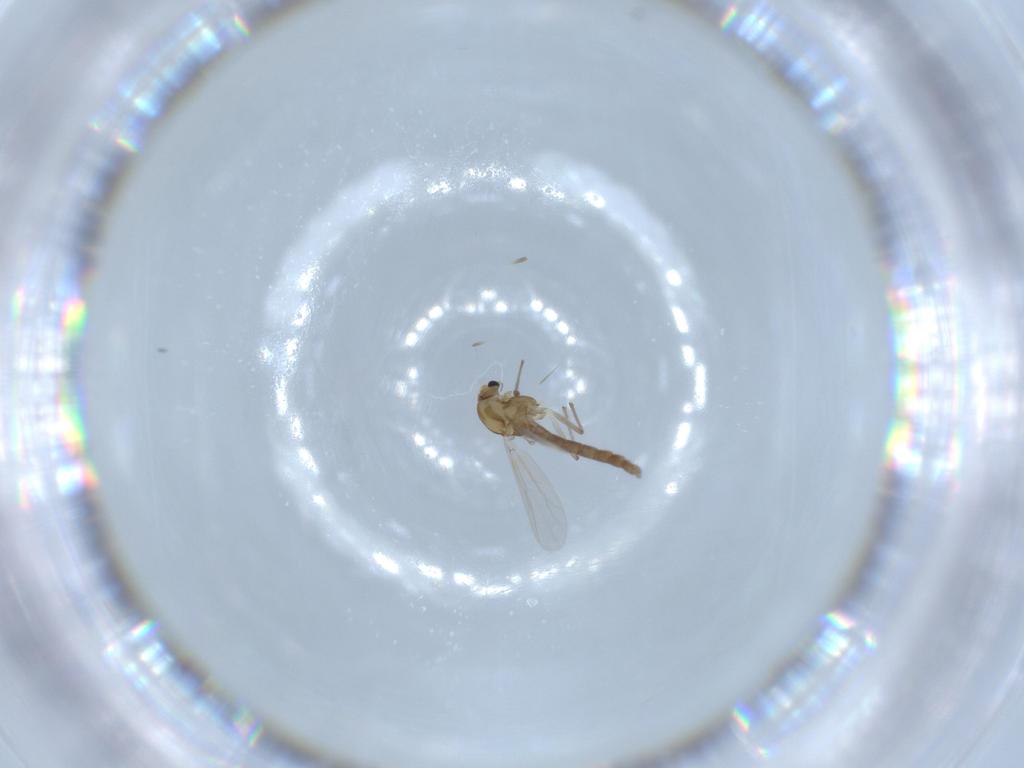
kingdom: Animalia
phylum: Arthropoda
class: Insecta
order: Diptera
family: Chironomidae
